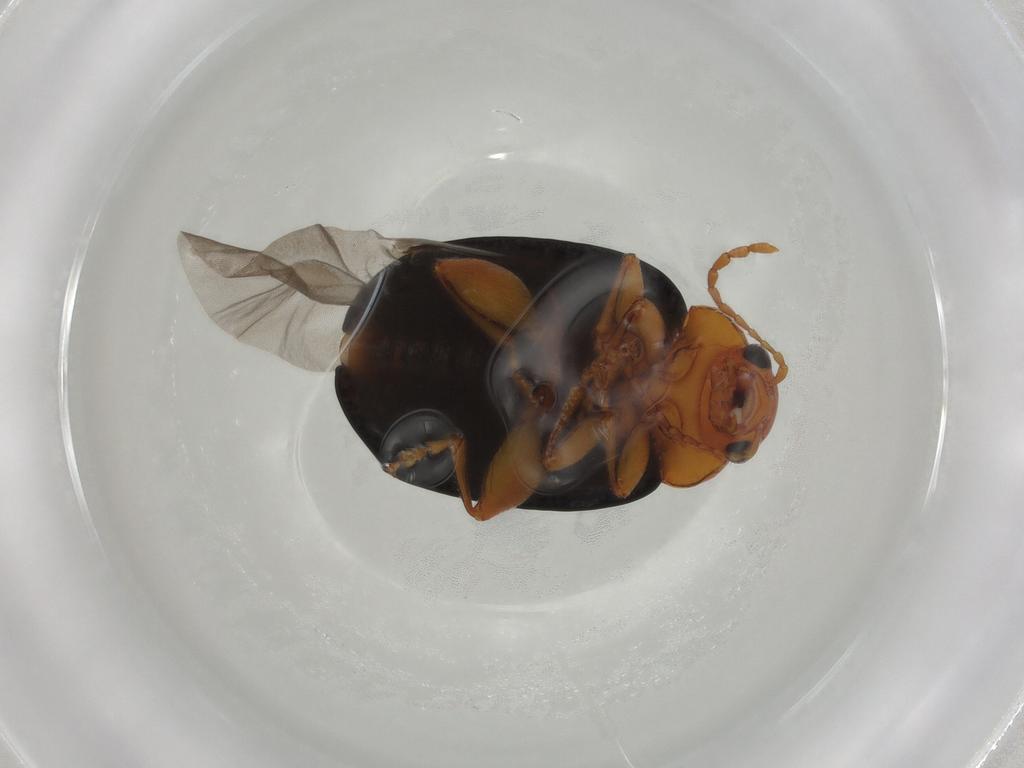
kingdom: Animalia
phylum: Arthropoda
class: Insecta
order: Coleoptera
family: Chrysomelidae
